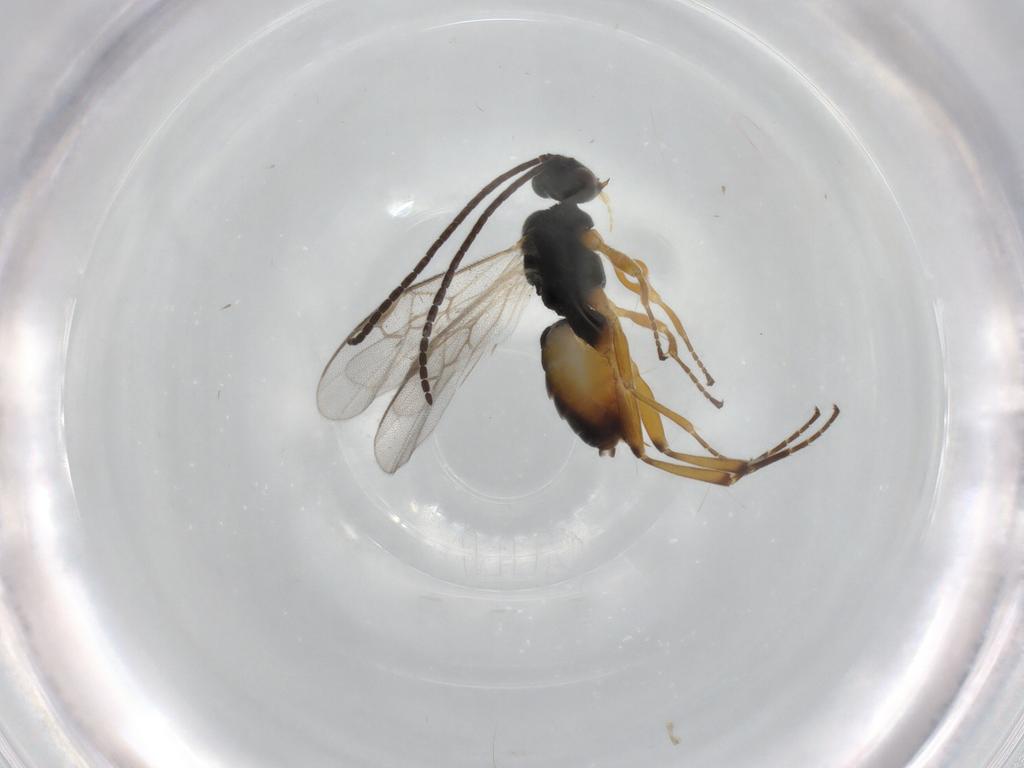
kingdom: Animalia
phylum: Arthropoda
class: Insecta
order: Hymenoptera
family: Braconidae
